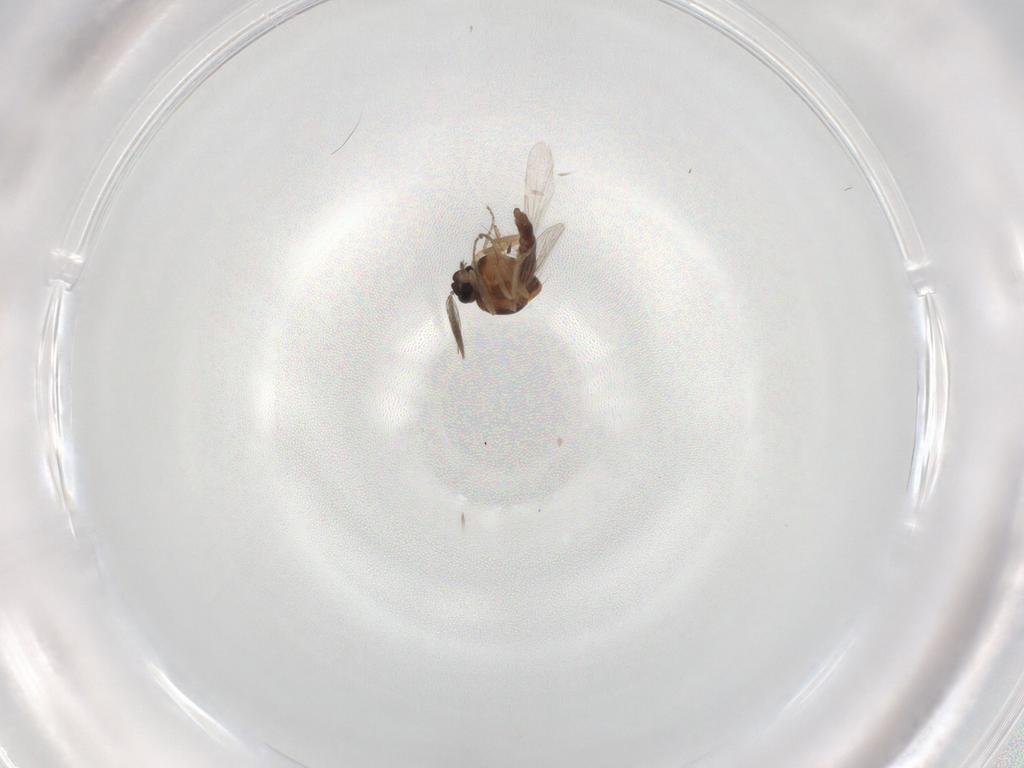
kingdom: Animalia
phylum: Arthropoda
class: Insecta
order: Diptera
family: Ceratopogonidae
